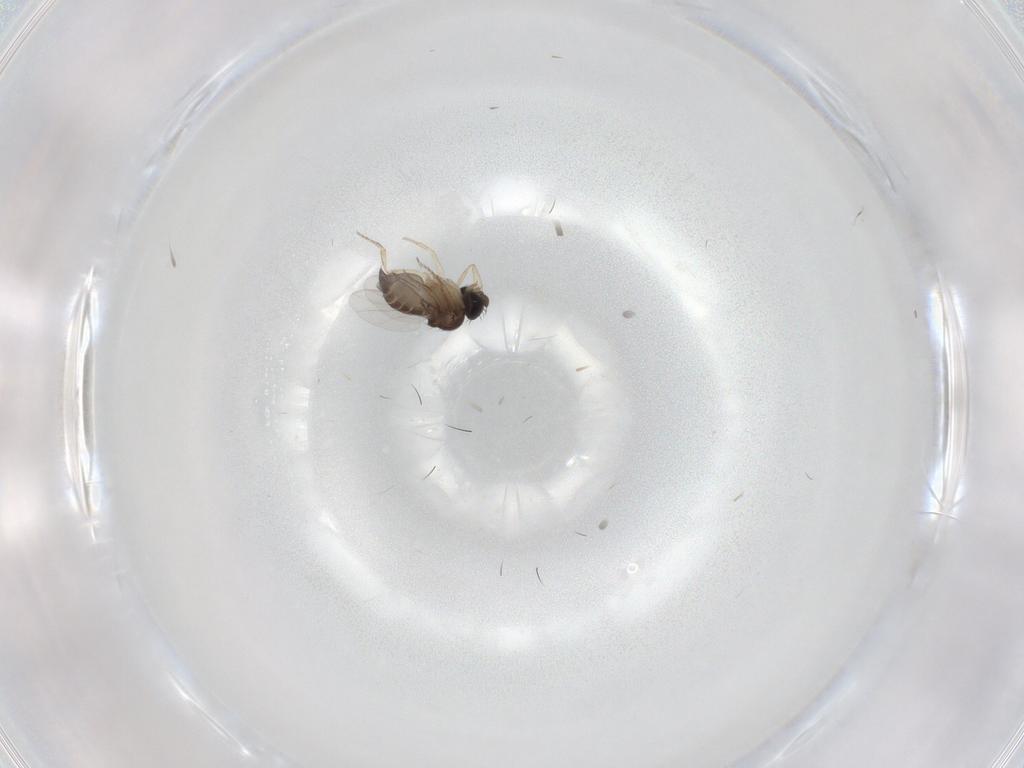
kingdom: Animalia
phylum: Arthropoda
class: Insecta
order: Diptera
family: Phoridae
